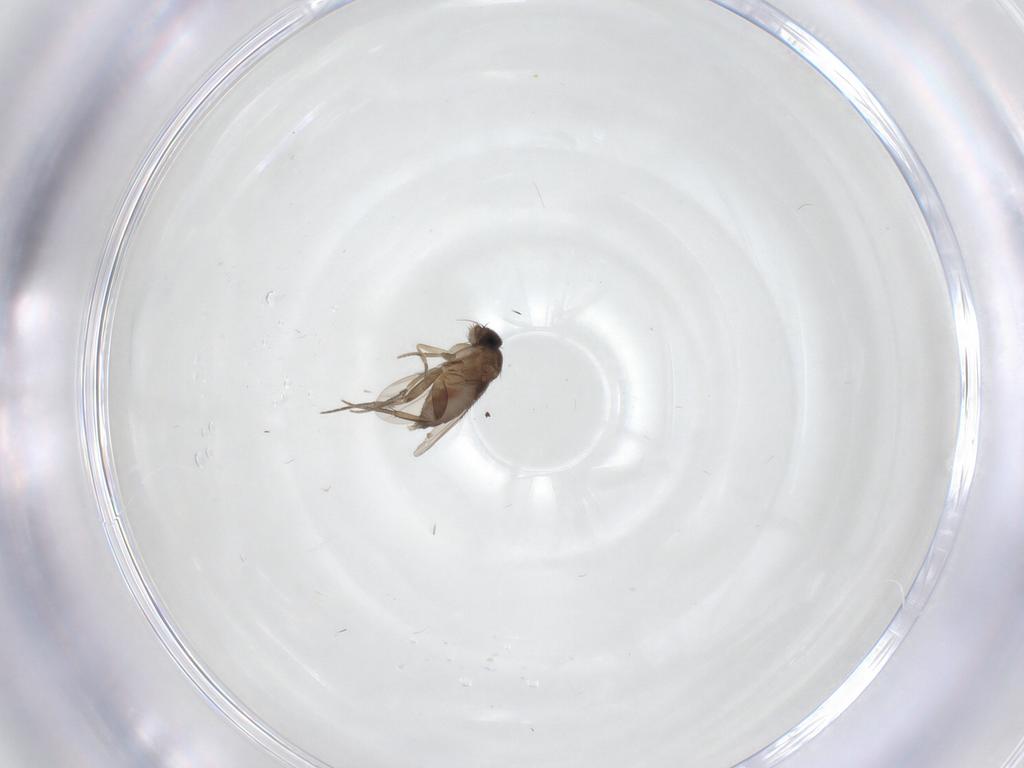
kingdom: Animalia
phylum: Arthropoda
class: Insecta
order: Diptera
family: Psychodidae
